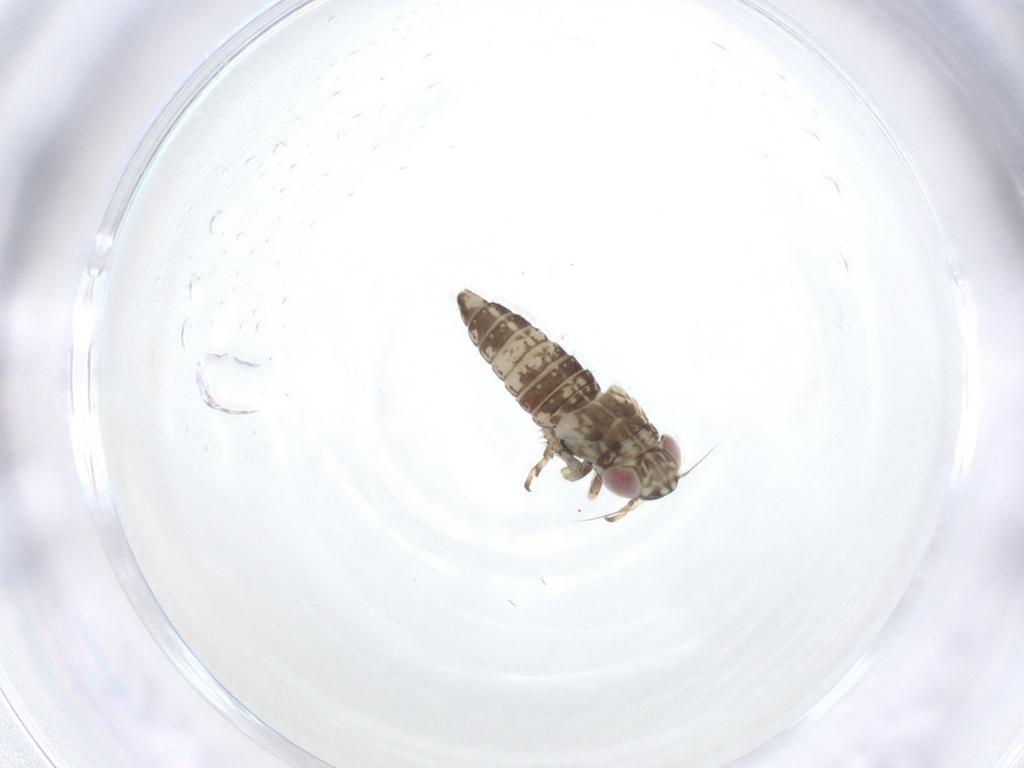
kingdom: Animalia
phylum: Arthropoda
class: Insecta
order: Hemiptera
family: Cicadellidae
